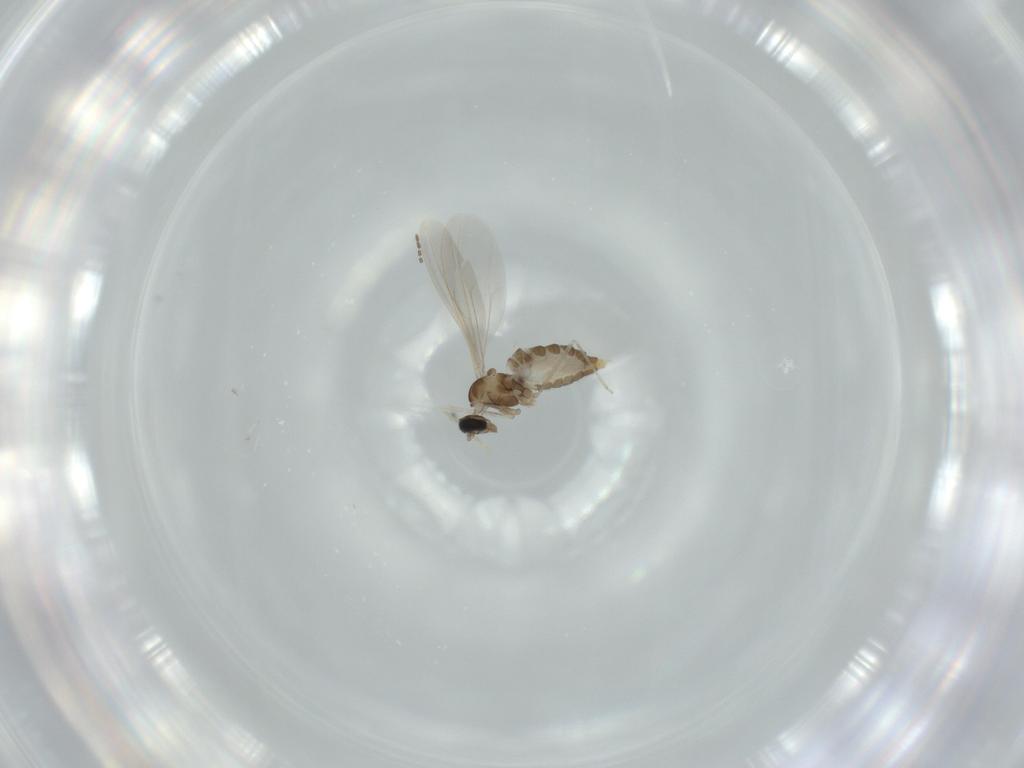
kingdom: Animalia
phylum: Arthropoda
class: Insecta
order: Diptera
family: Cecidomyiidae
